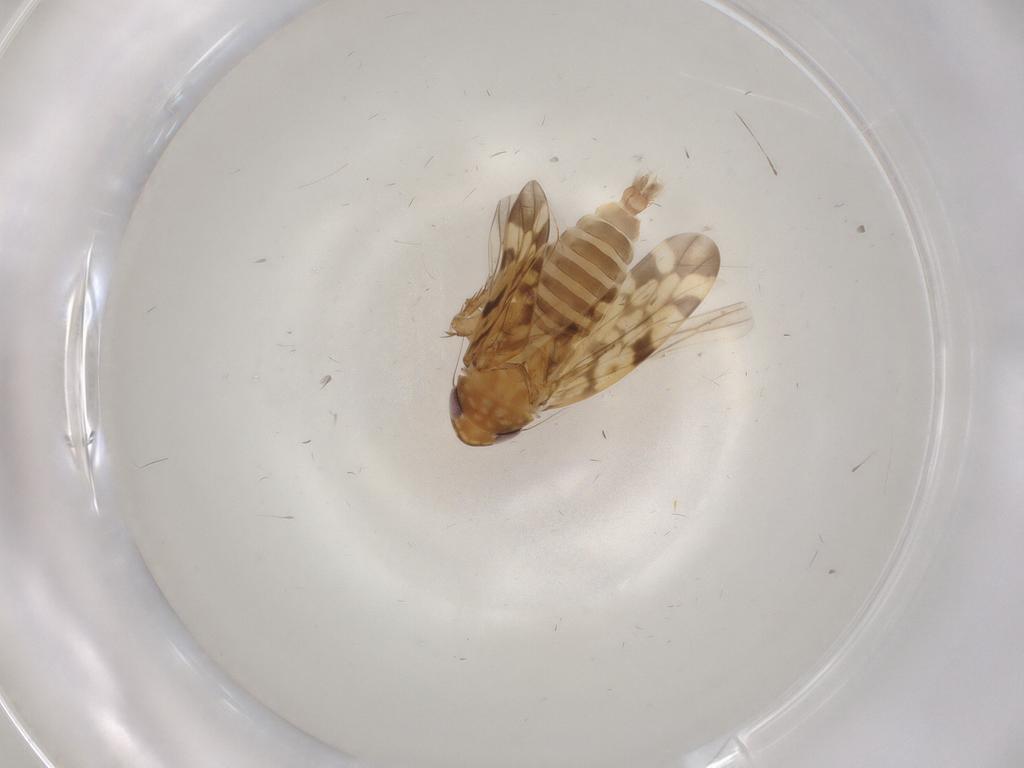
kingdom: Animalia
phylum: Arthropoda
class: Insecta
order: Hemiptera
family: Cicadellidae
